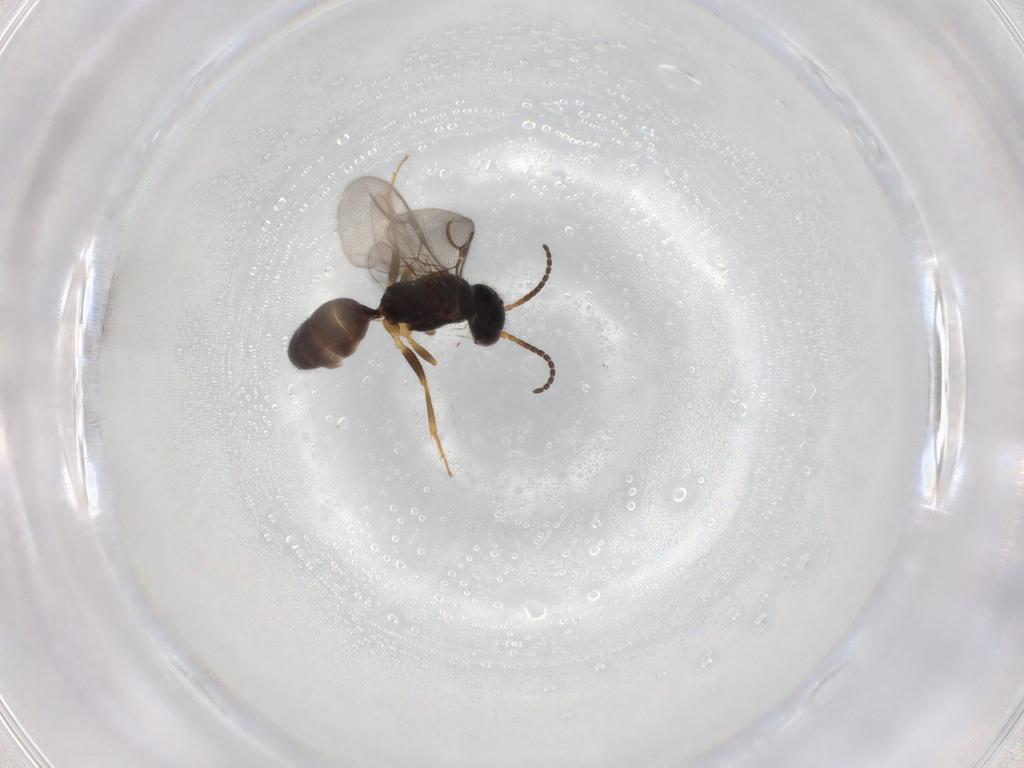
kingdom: Animalia
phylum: Arthropoda
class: Insecta
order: Hymenoptera
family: Bethylidae
